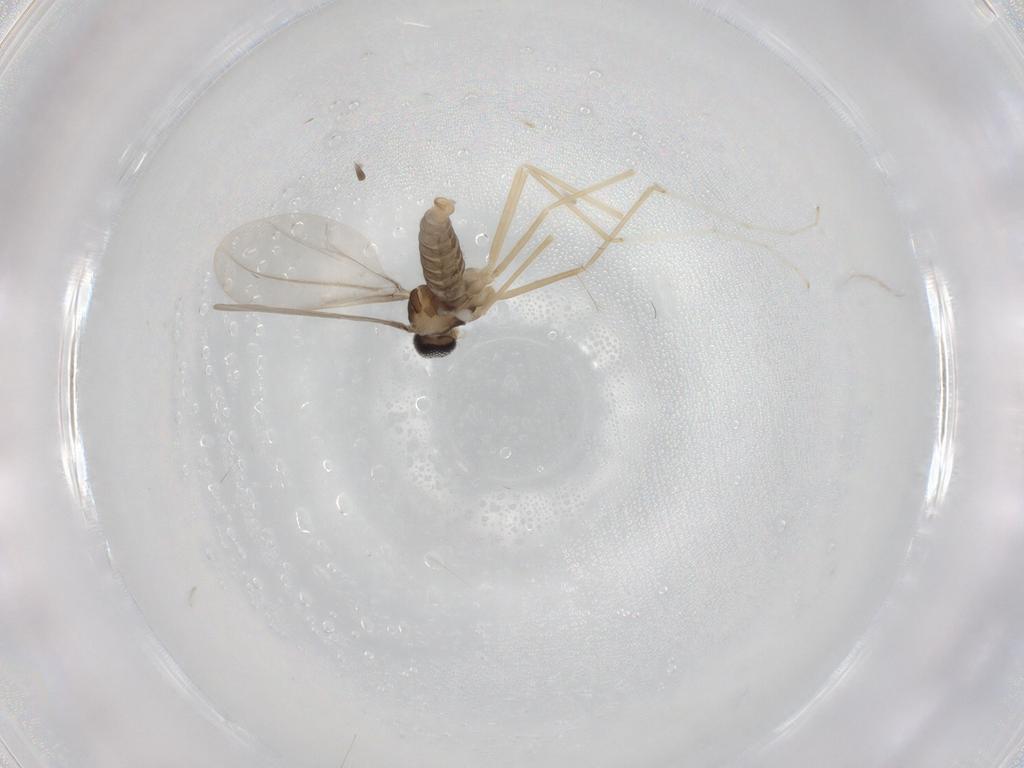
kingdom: Animalia
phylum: Arthropoda
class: Insecta
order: Diptera
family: Cecidomyiidae
